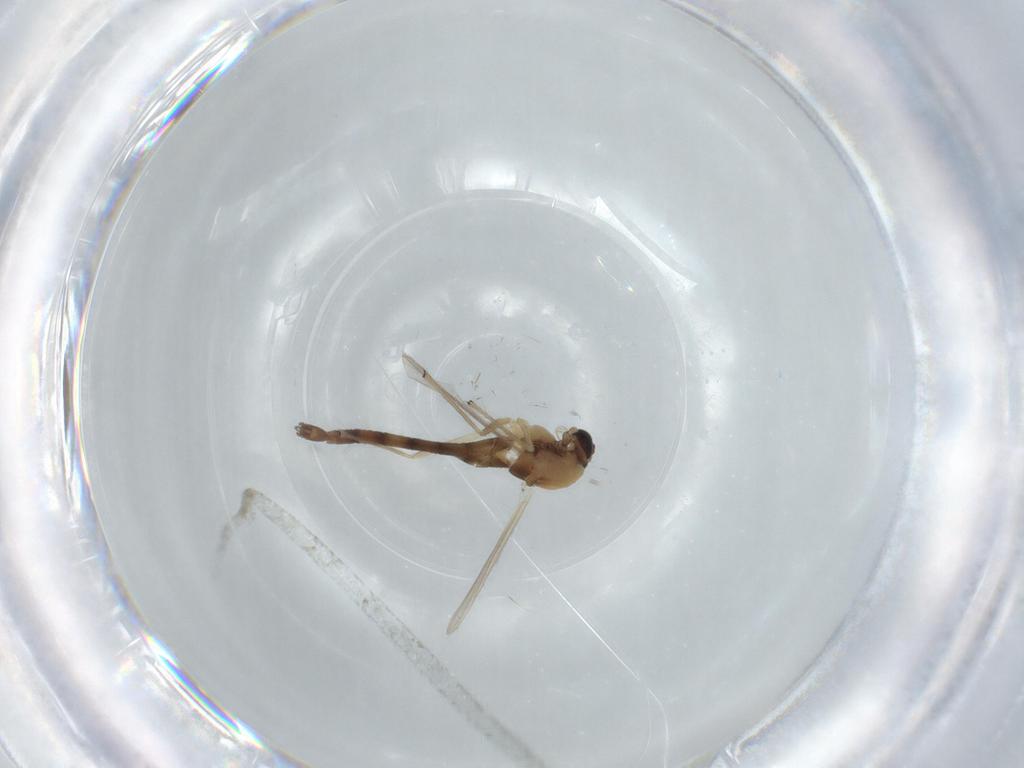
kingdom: Animalia
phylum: Arthropoda
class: Insecta
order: Diptera
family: Chironomidae
